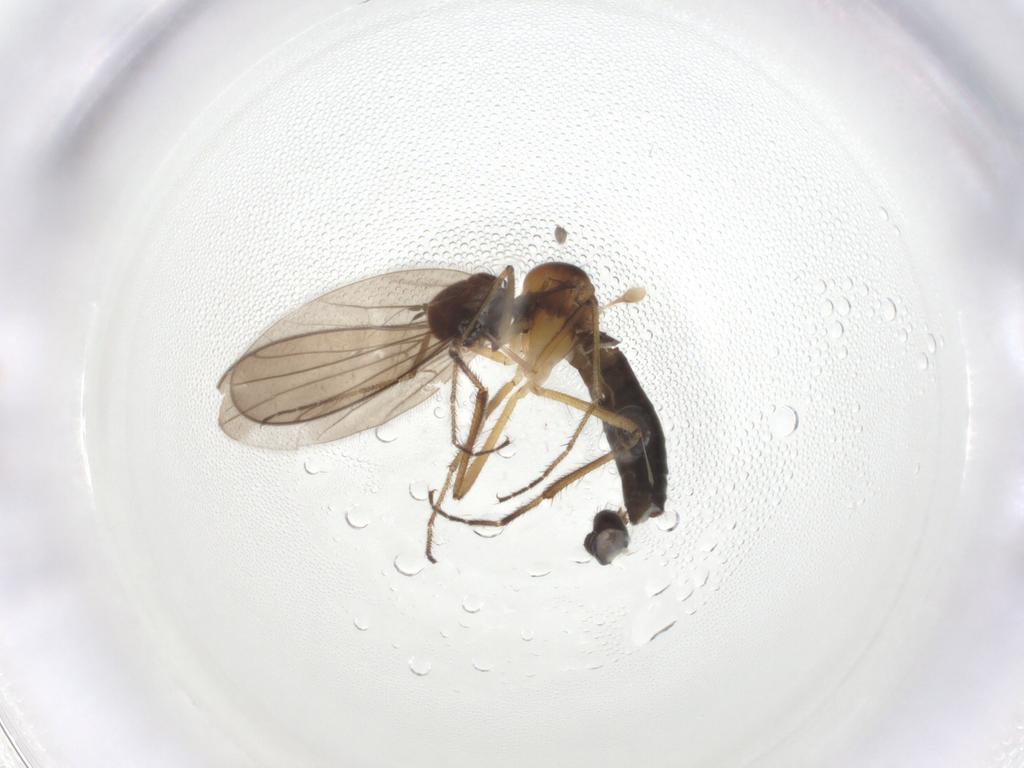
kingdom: Animalia
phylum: Arthropoda
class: Insecta
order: Diptera
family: Hybotidae
